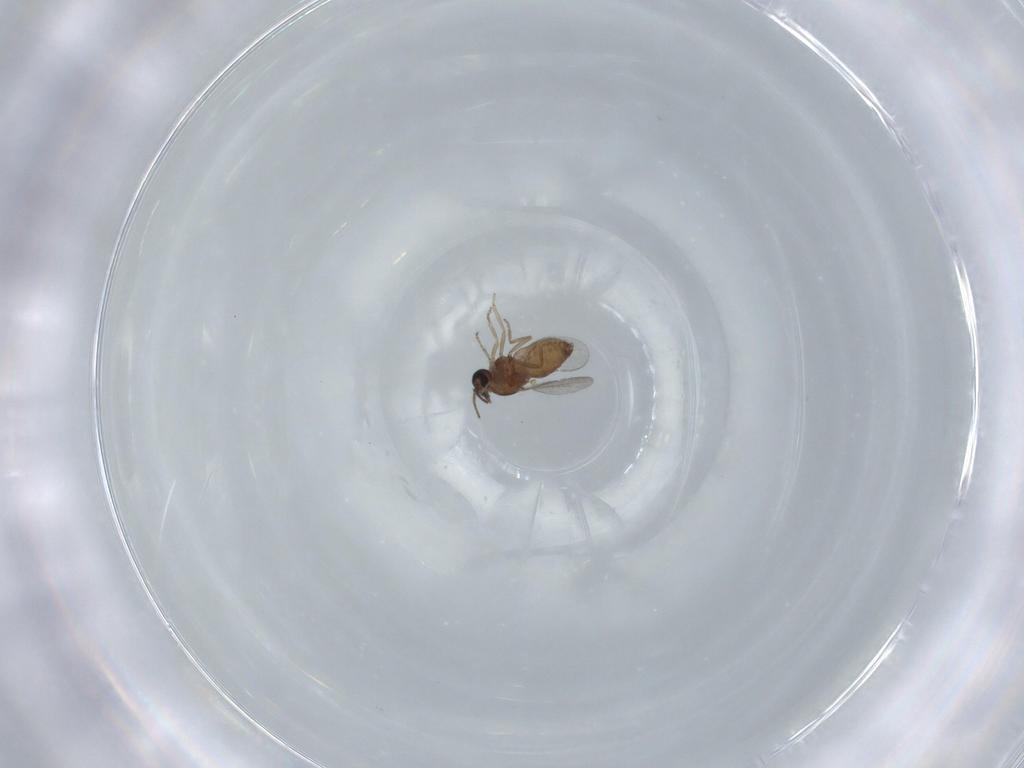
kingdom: Animalia
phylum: Arthropoda
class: Insecta
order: Diptera
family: Ceratopogonidae
